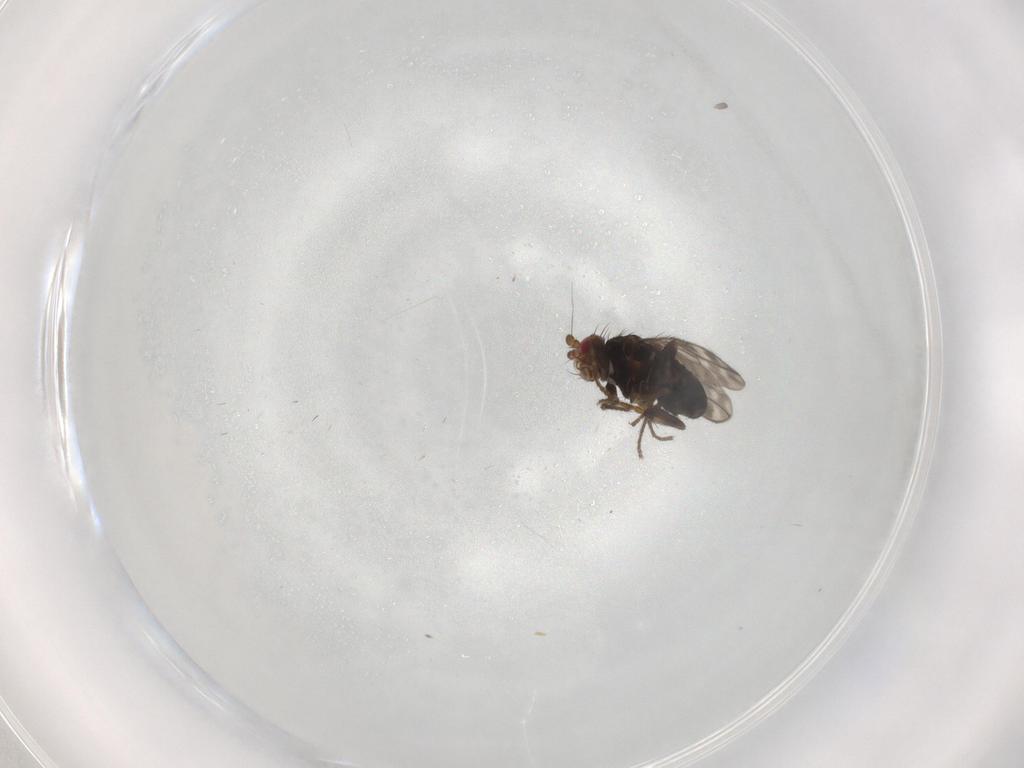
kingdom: Animalia
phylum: Arthropoda
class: Insecta
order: Diptera
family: Sphaeroceridae
